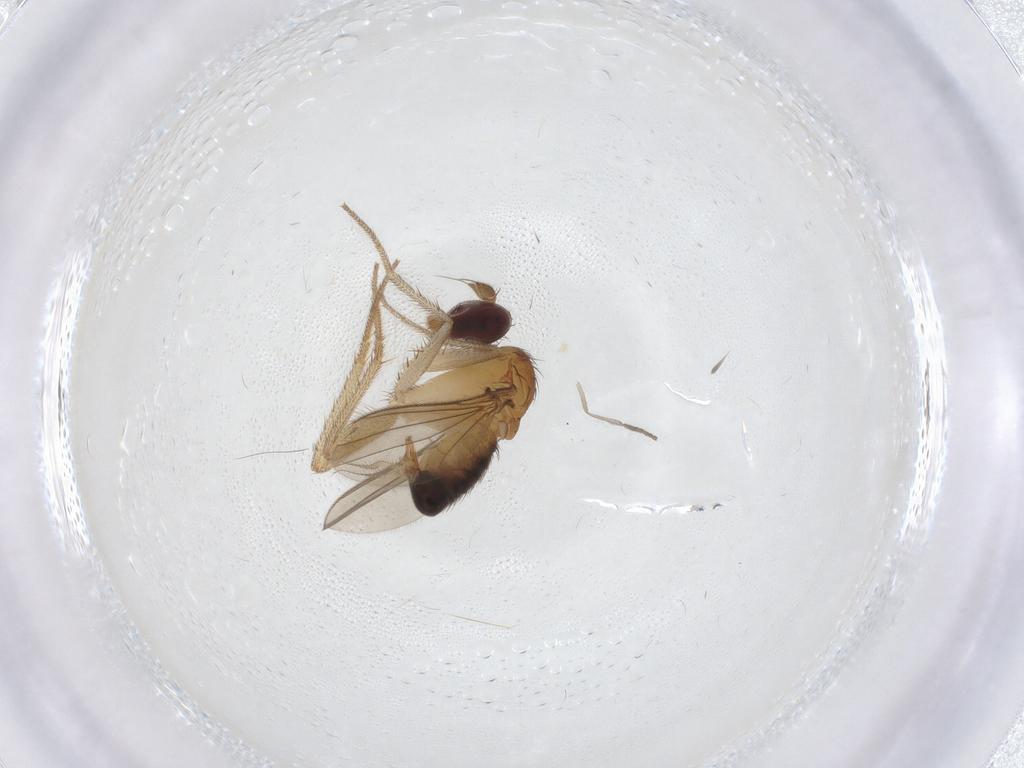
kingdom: Animalia
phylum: Arthropoda
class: Insecta
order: Diptera
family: Dolichopodidae
